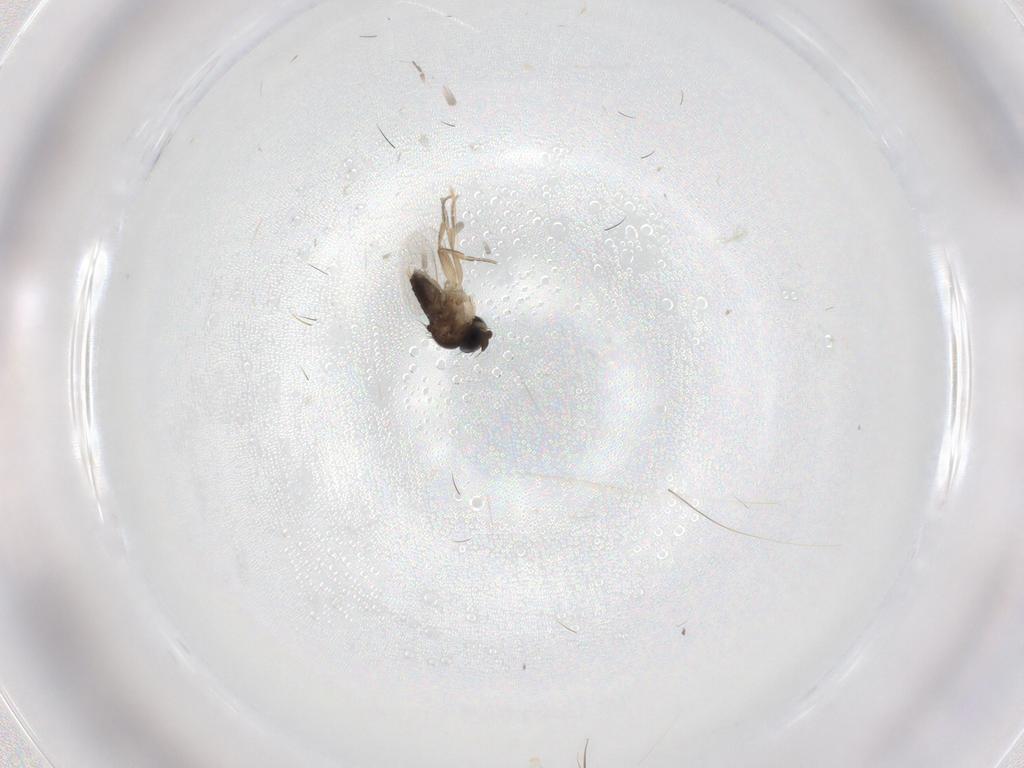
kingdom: Animalia
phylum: Arthropoda
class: Insecta
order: Diptera
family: Phoridae
